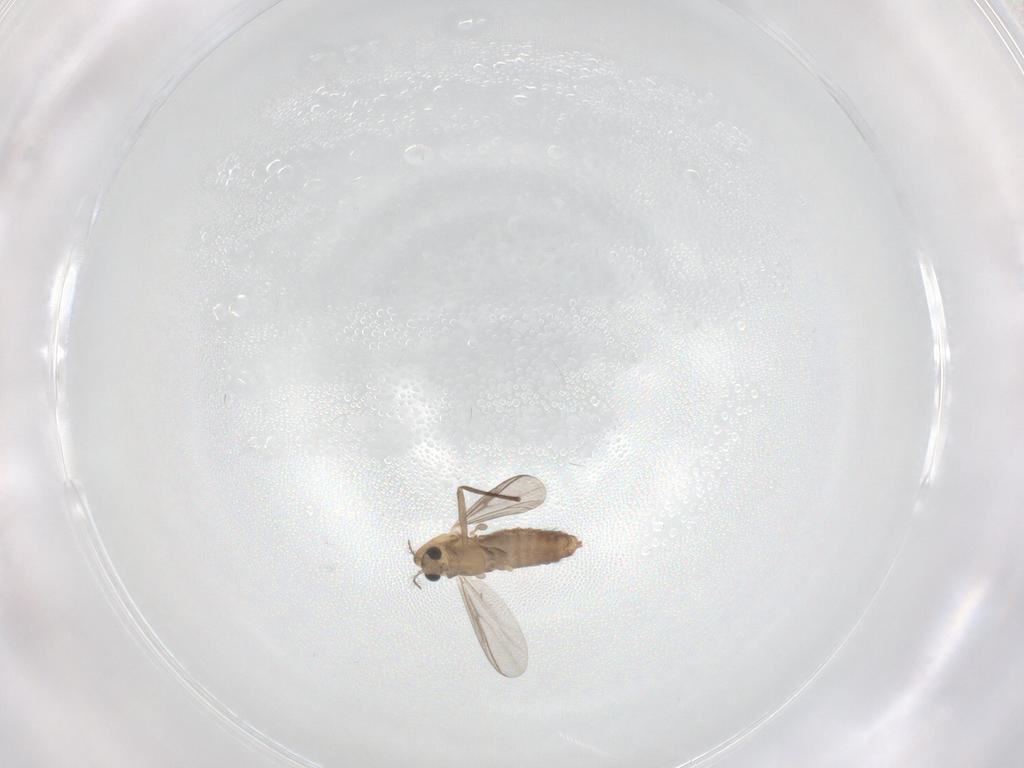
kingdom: Animalia
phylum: Arthropoda
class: Insecta
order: Diptera
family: Chironomidae
